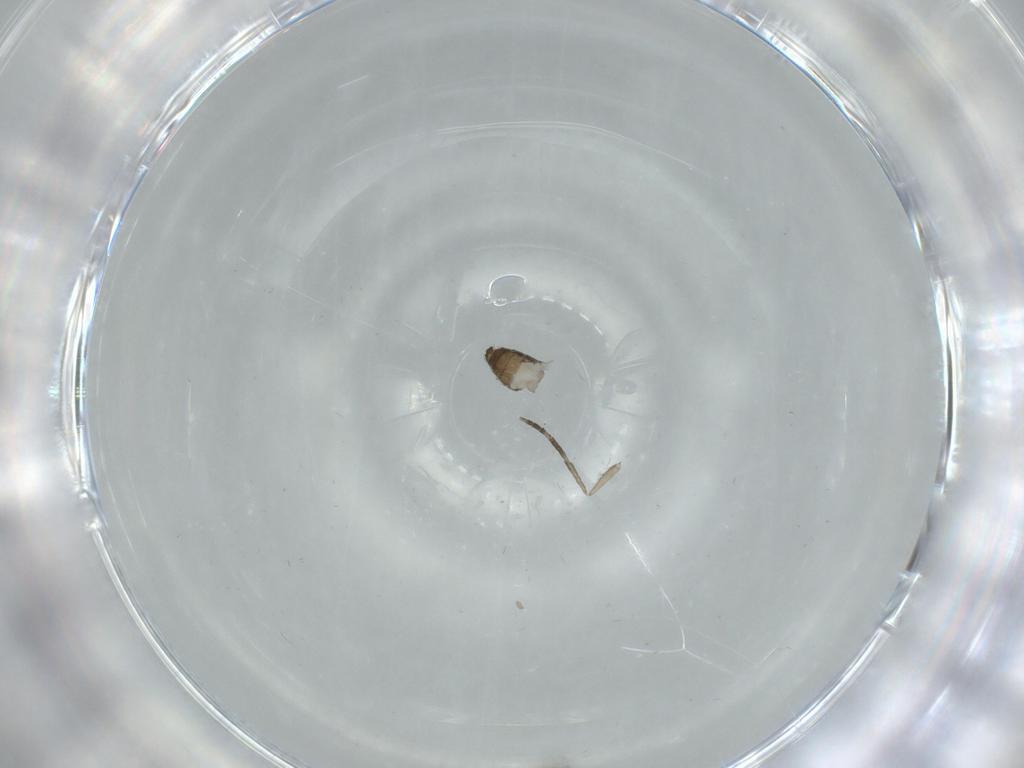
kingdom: Animalia
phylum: Arthropoda
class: Insecta
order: Diptera
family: Psychodidae
